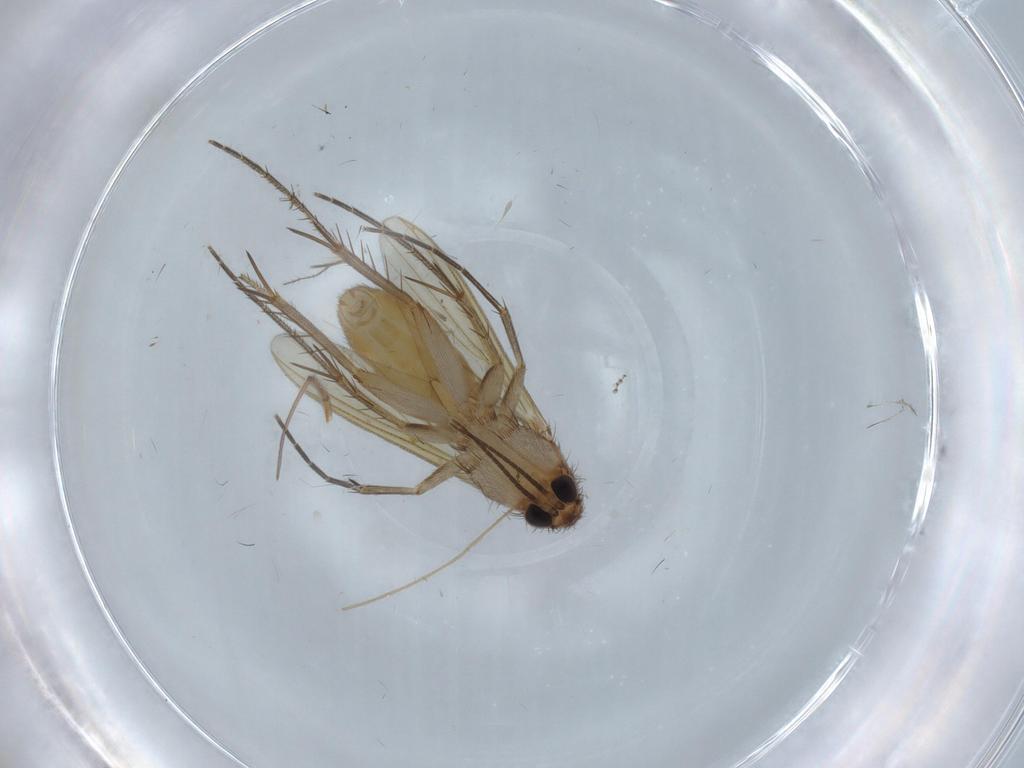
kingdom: Animalia
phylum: Arthropoda
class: Insecta
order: Diptera
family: Mycetophilidae
